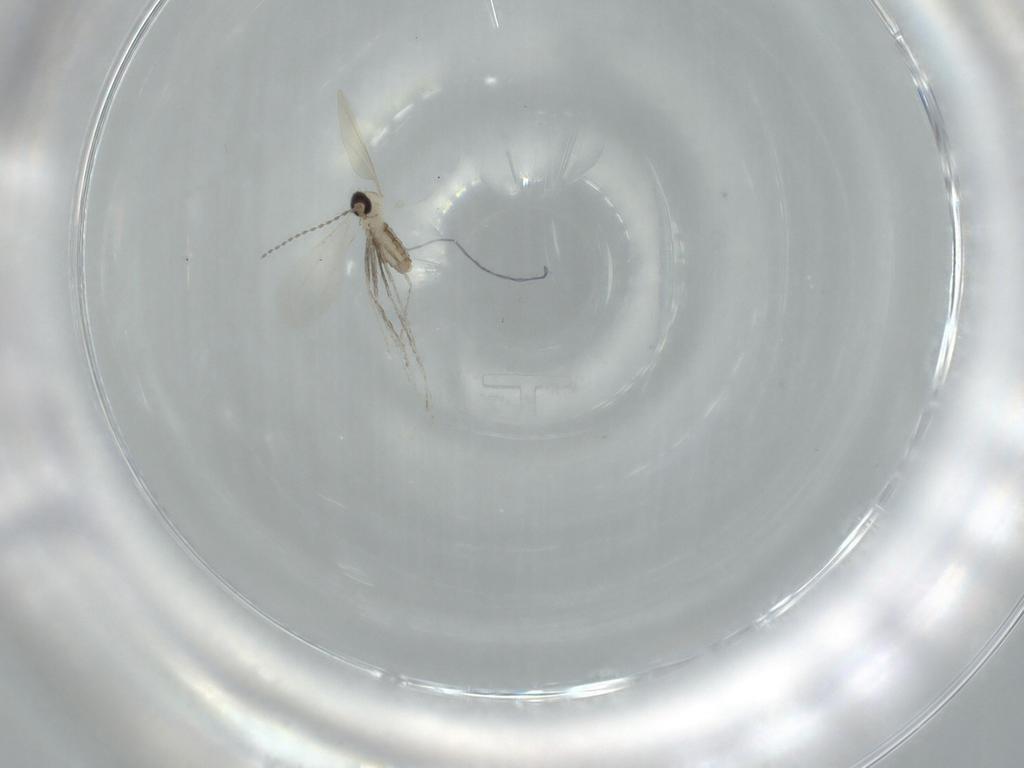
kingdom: Animalia
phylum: Arthropoda
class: Insecta
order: Diptera
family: Cecidomyiidae
